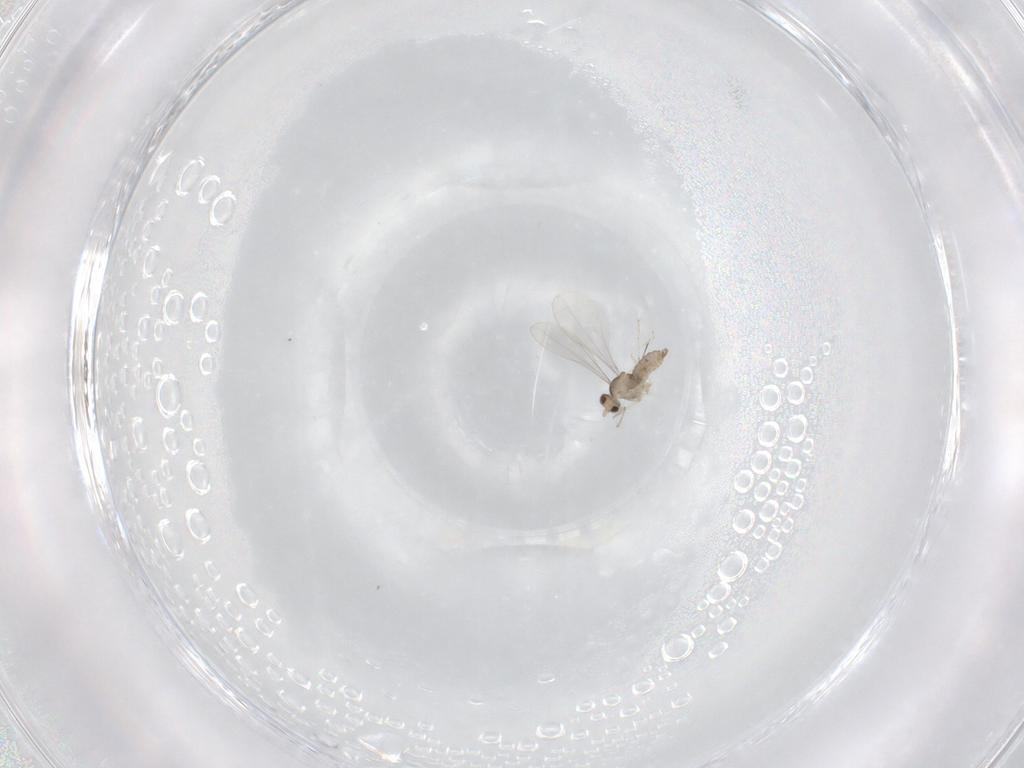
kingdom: Animalia
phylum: Arthropoda
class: Insecta
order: Diptera
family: Cecidomyiidae
